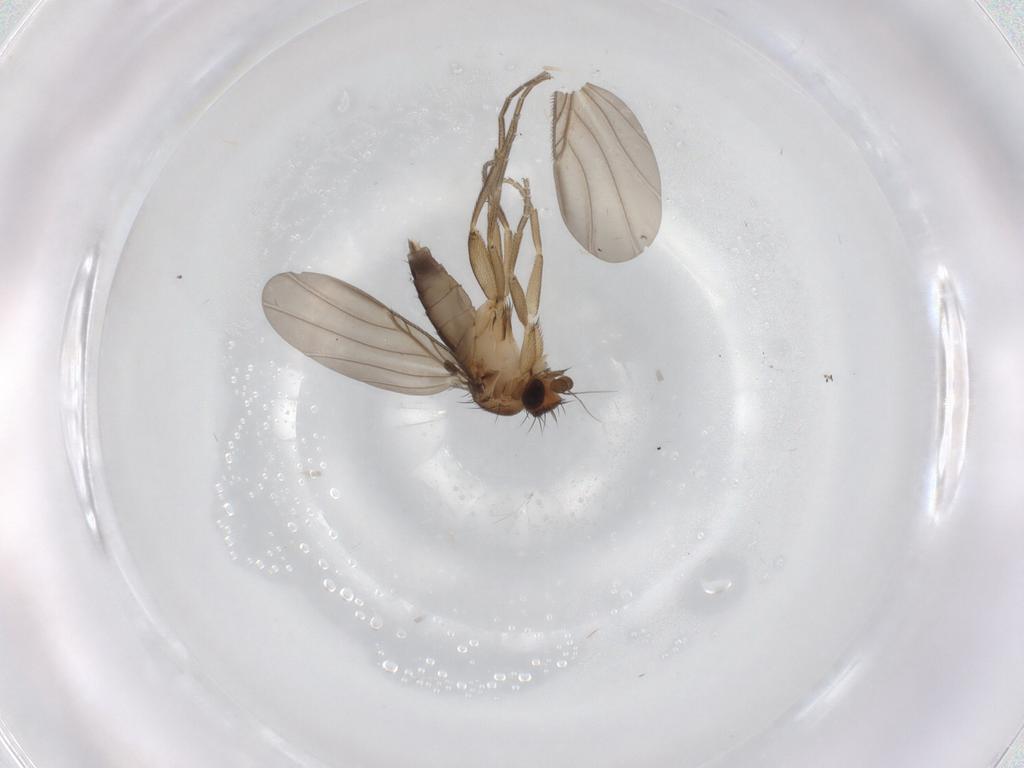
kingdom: Animalia
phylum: Arthropoda
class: Insecta
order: Diptera
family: Phoridae
